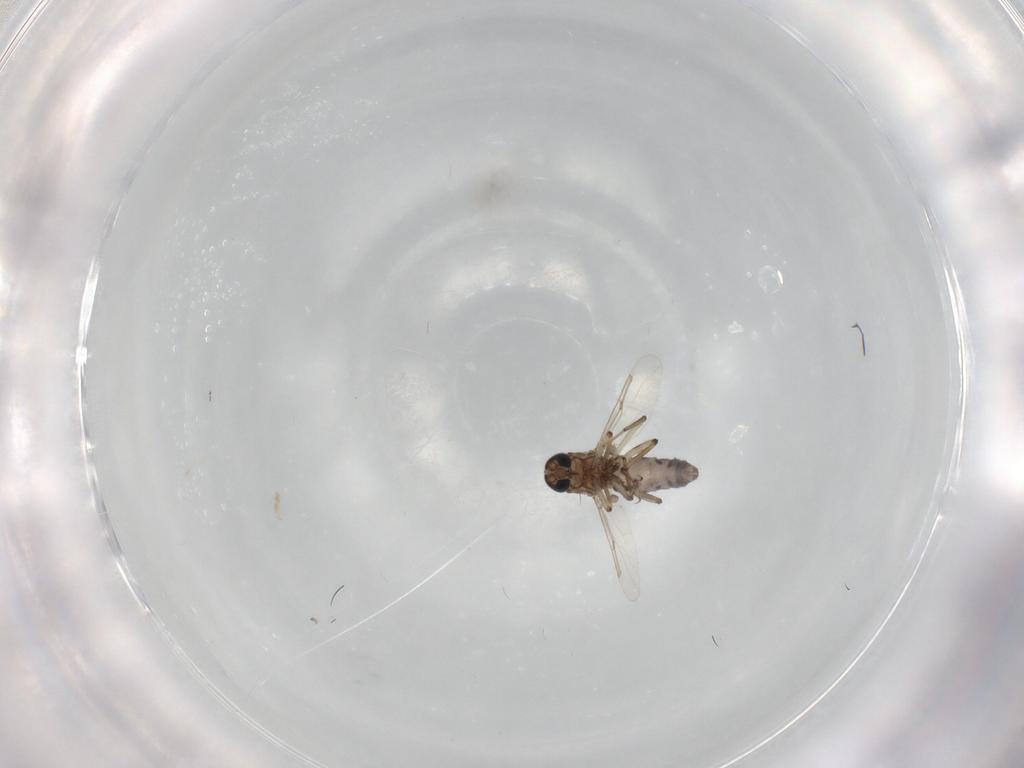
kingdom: Animalia
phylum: Arthropoda
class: Insecta
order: Diptera
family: Ceratopogonidae
